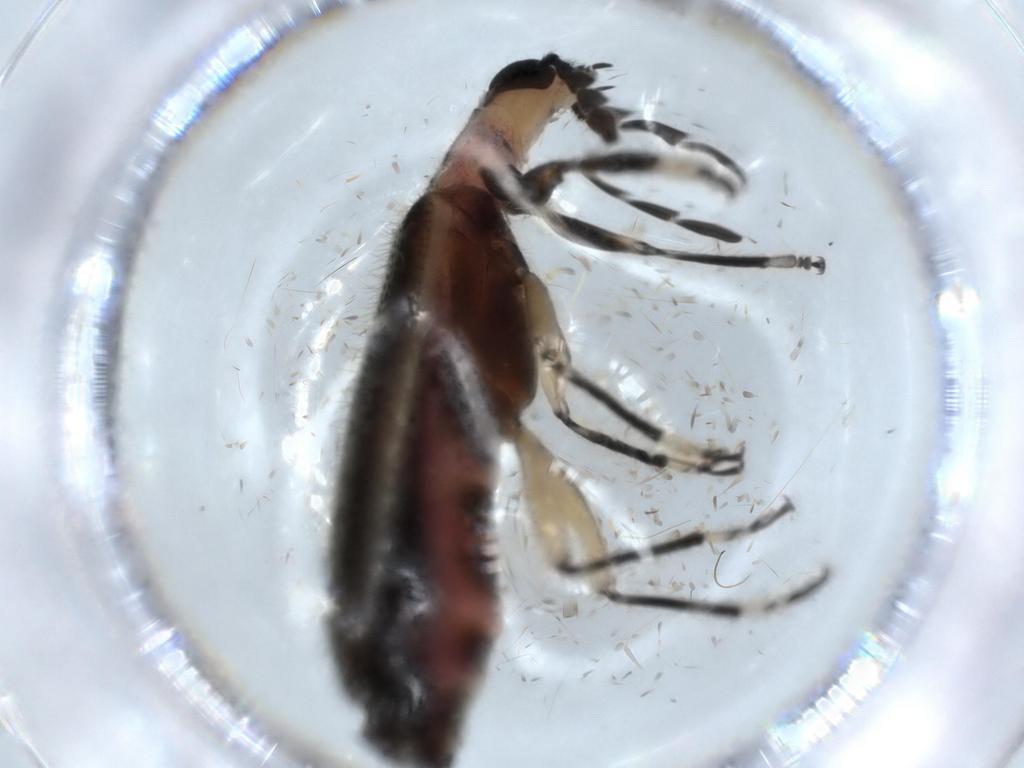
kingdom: Animalia
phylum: Arthropoda
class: Insecta
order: Coleoptera
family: Cleridae
